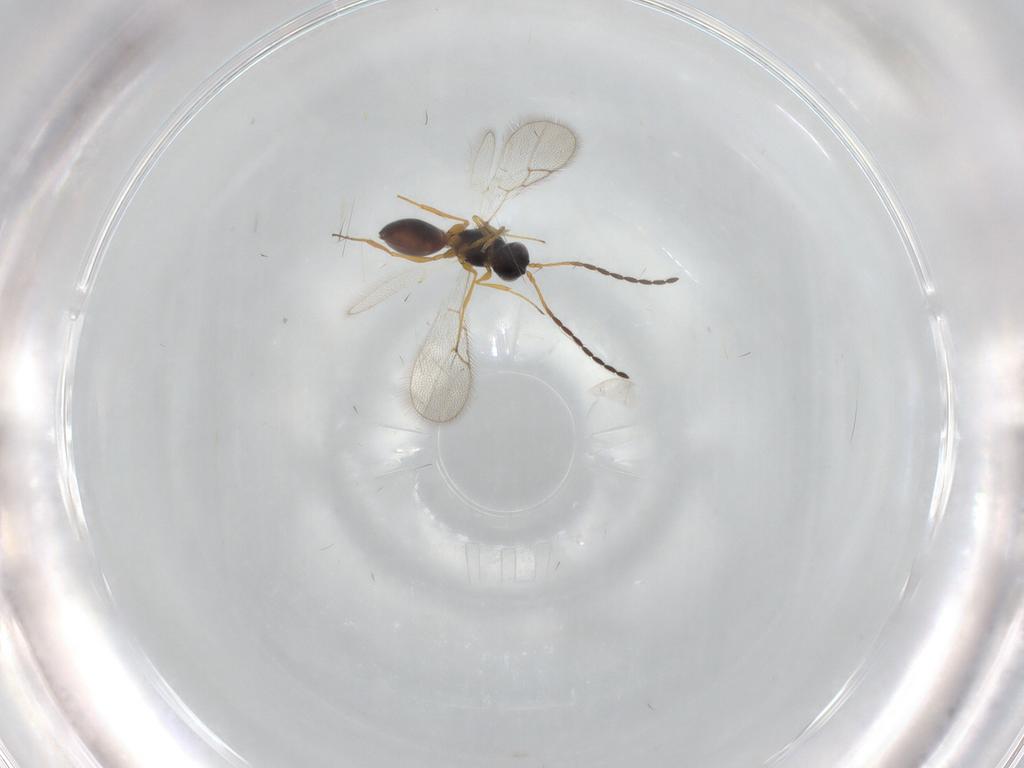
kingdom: Animalia
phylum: Arthropoda
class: Insecta
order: Hymenoptera
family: Figitidae
